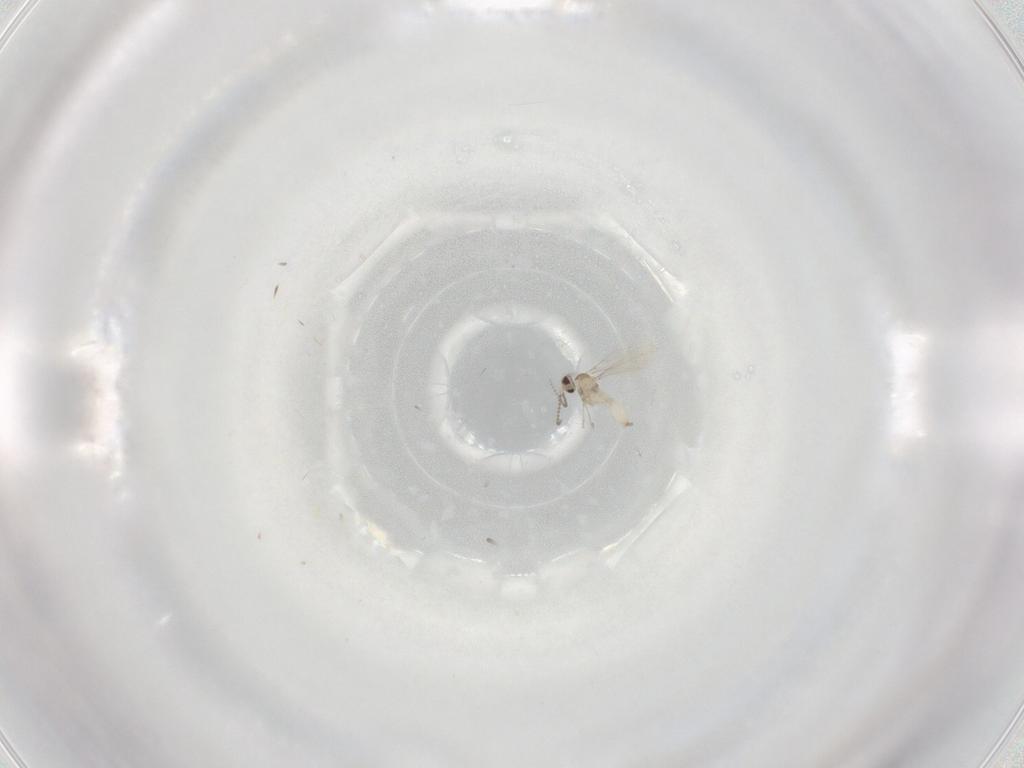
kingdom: Animalia
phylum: Arthropoda
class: Insecta
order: Diptera
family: Cecidomyiidae
